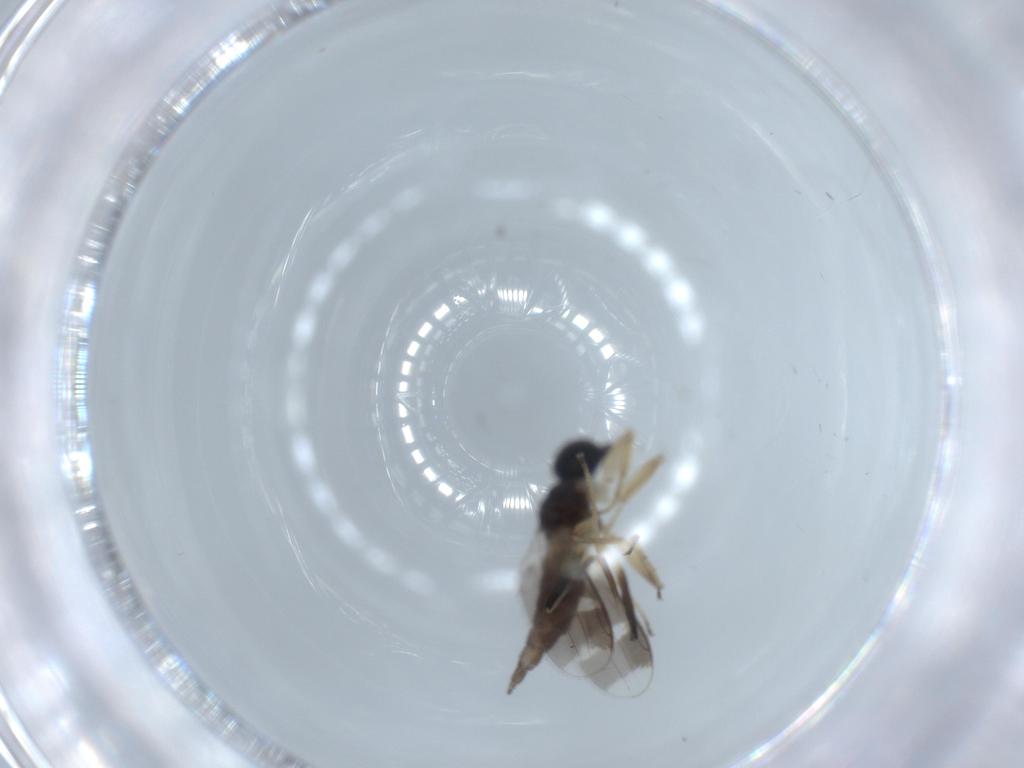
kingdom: Animalia
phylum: Arthropoda
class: Insecta
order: Diptera
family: Hybotidae
